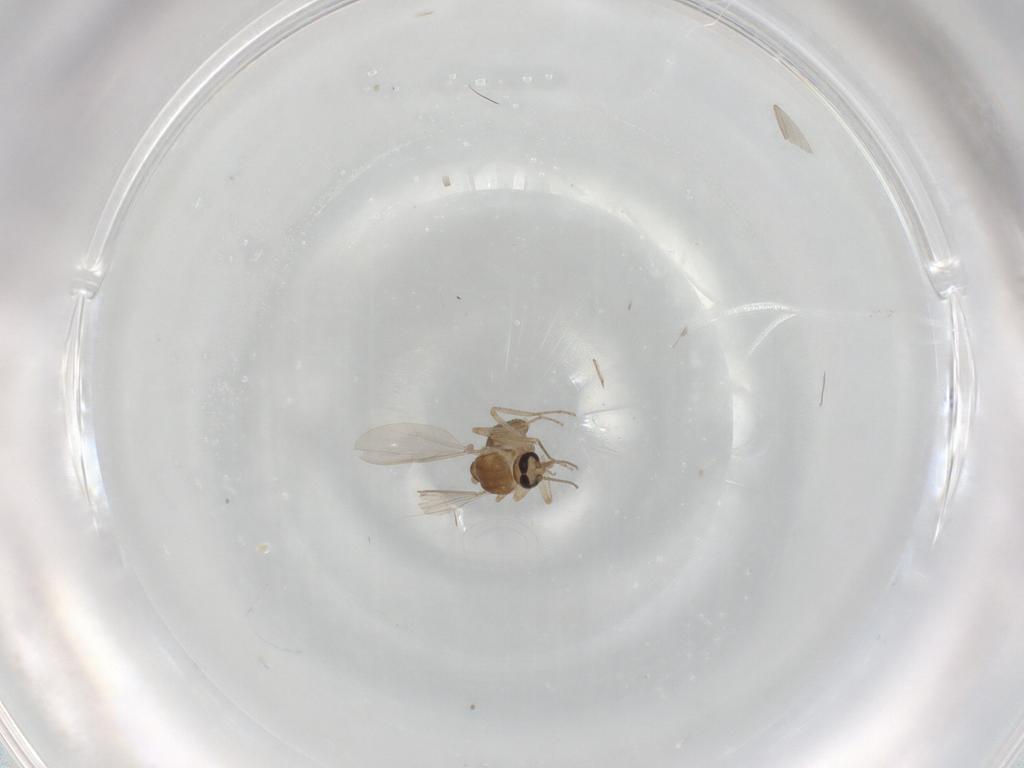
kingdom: Animalia
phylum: Arthropoda
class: Insecta
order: Diptera
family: Ceratopogonidae
